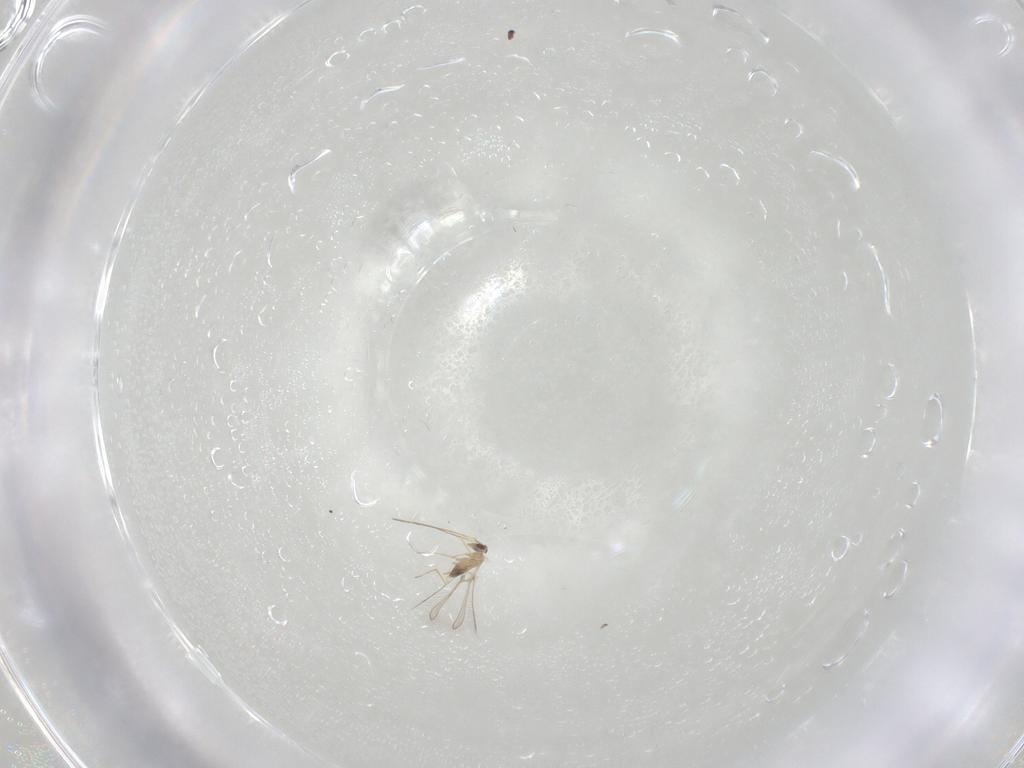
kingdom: Animalia
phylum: Arthropoda
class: Insecta
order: Hymenoptera
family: Mymaridae
